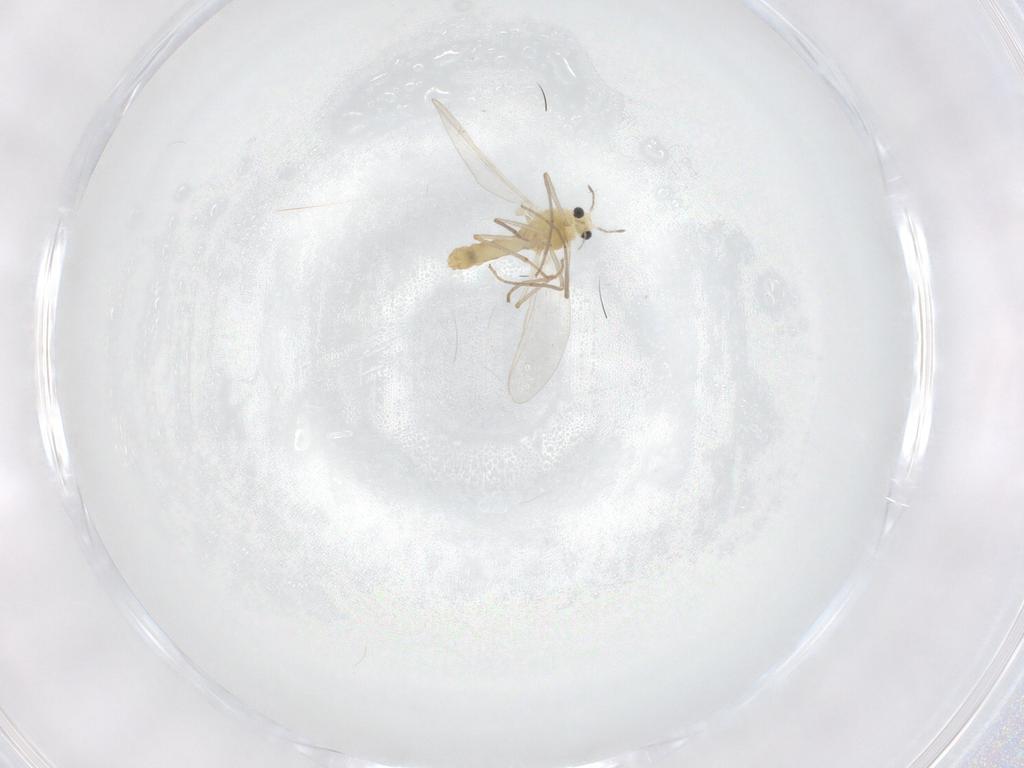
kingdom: Animalia
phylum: Arthropoda
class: Insecta
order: Diptera
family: Chironomidae
